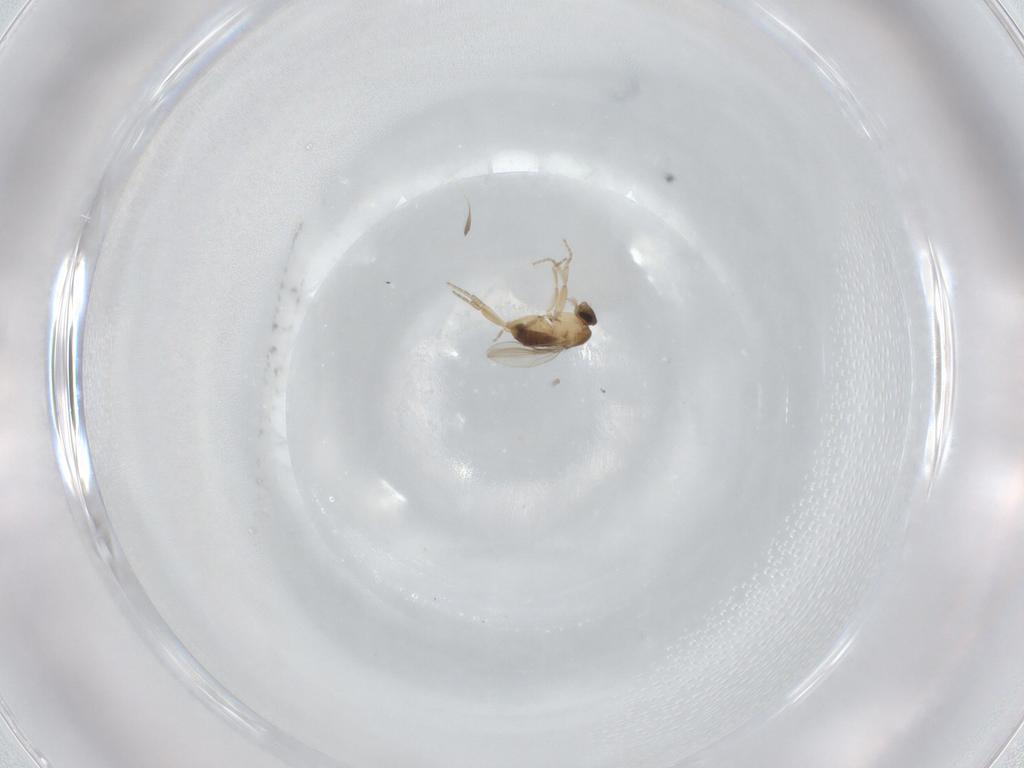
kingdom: Animalia
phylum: Arthropoda
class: Insecta
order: Diptera
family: Phoridae
